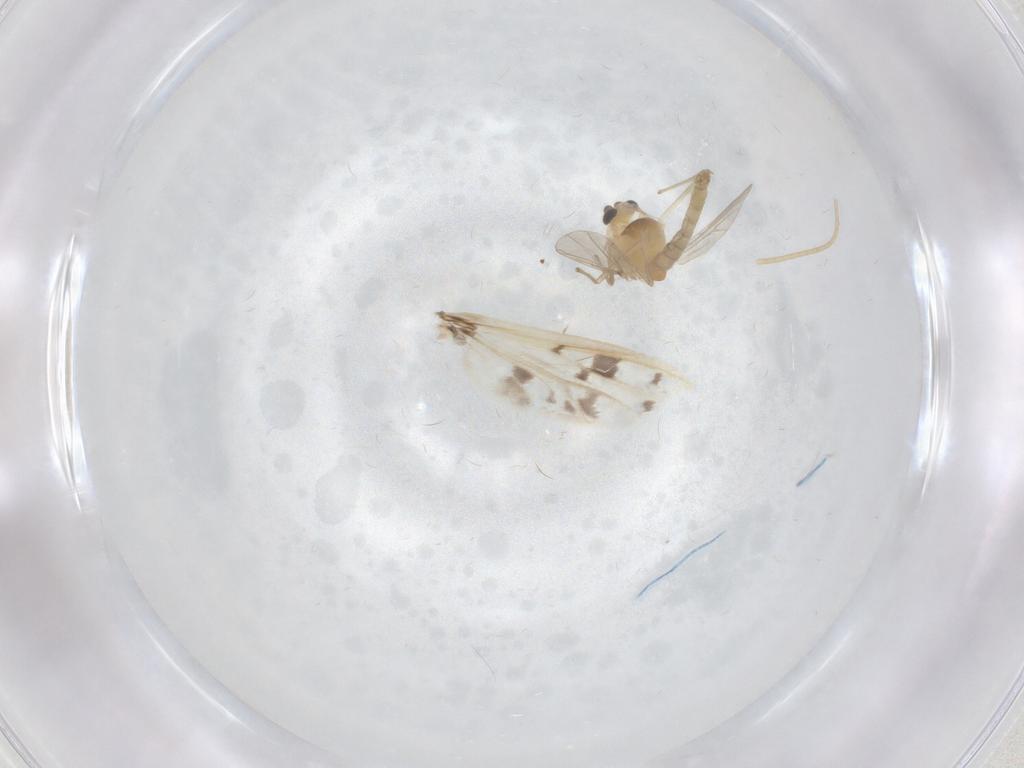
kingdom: Animalia
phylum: Arthropoda
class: Insecta
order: Diptera
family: Chironomidae
